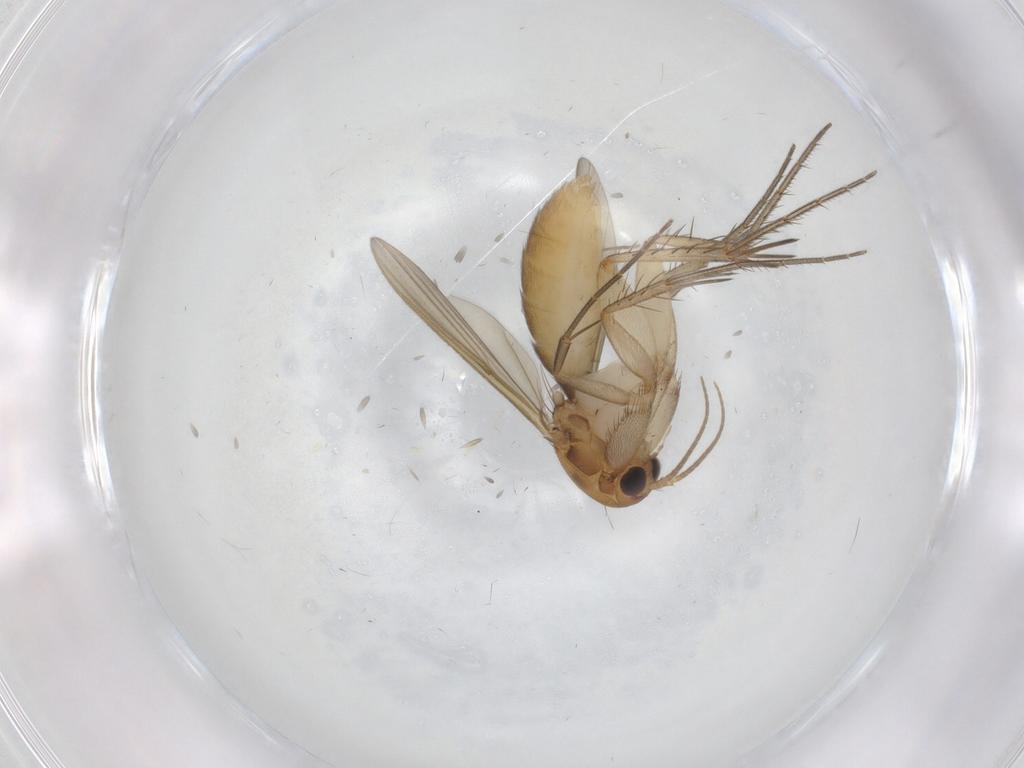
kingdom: Animalia
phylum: Arthropoda
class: Insecta
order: Diptera
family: Mycetophilidae
